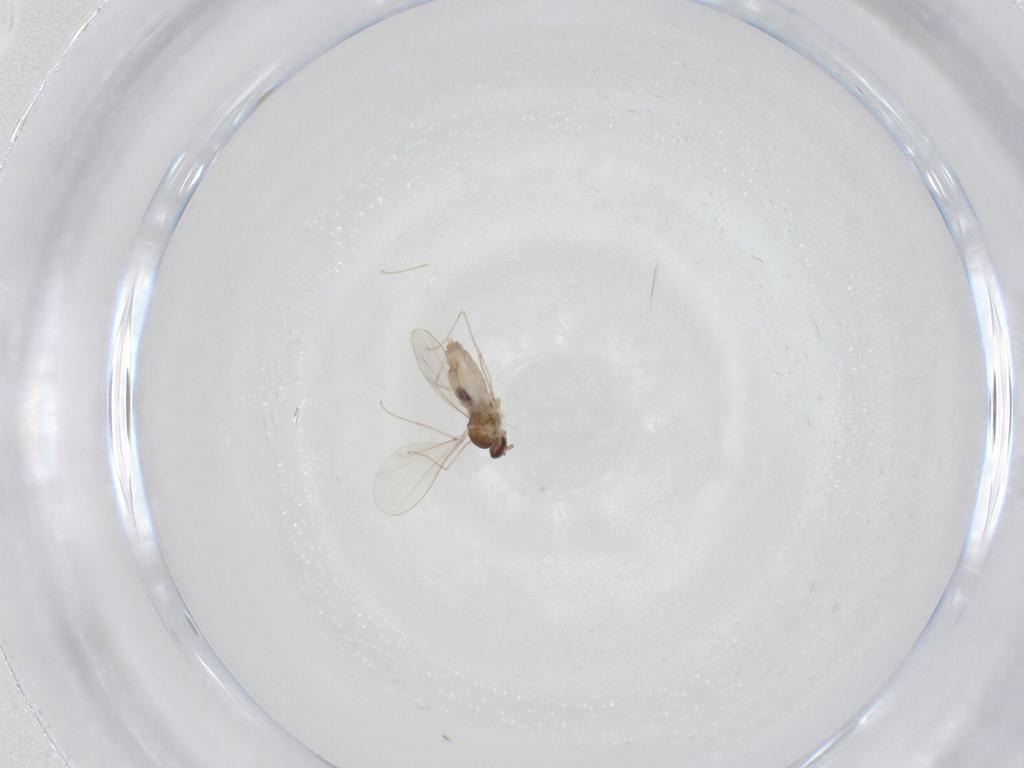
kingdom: Animalia
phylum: Arthropoda
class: Insecta
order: Diptera
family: Cecidomyiidae
